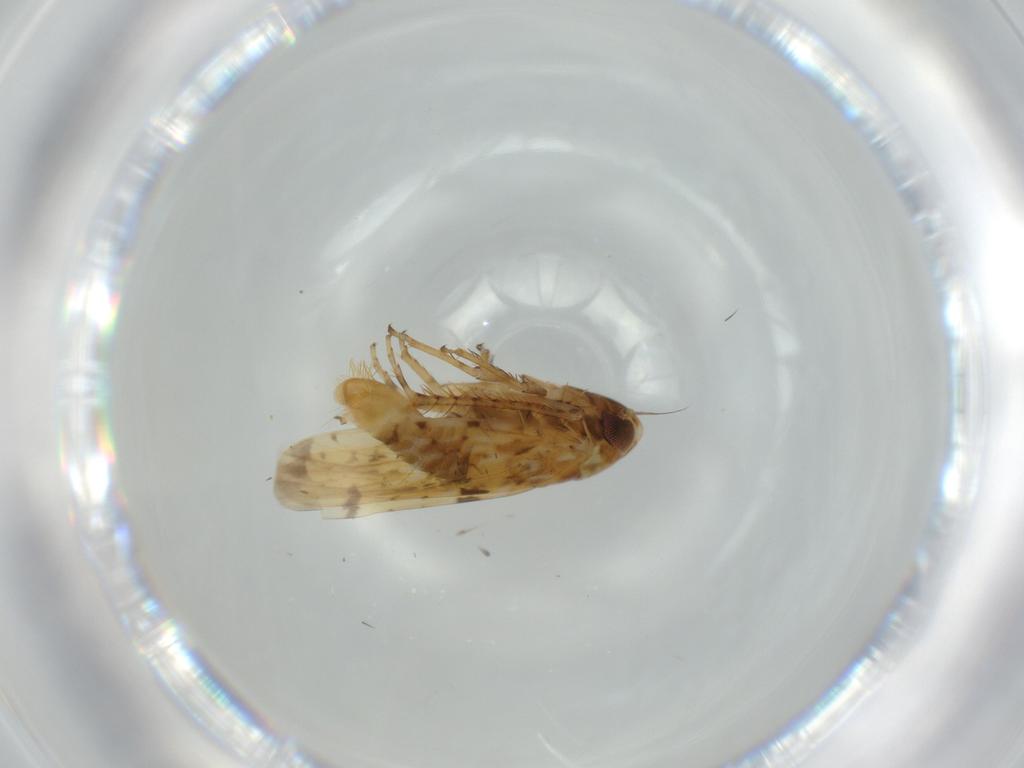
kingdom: Animalia
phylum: Arthropoda
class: Insecta
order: Hemiptera
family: Cicadellidae
